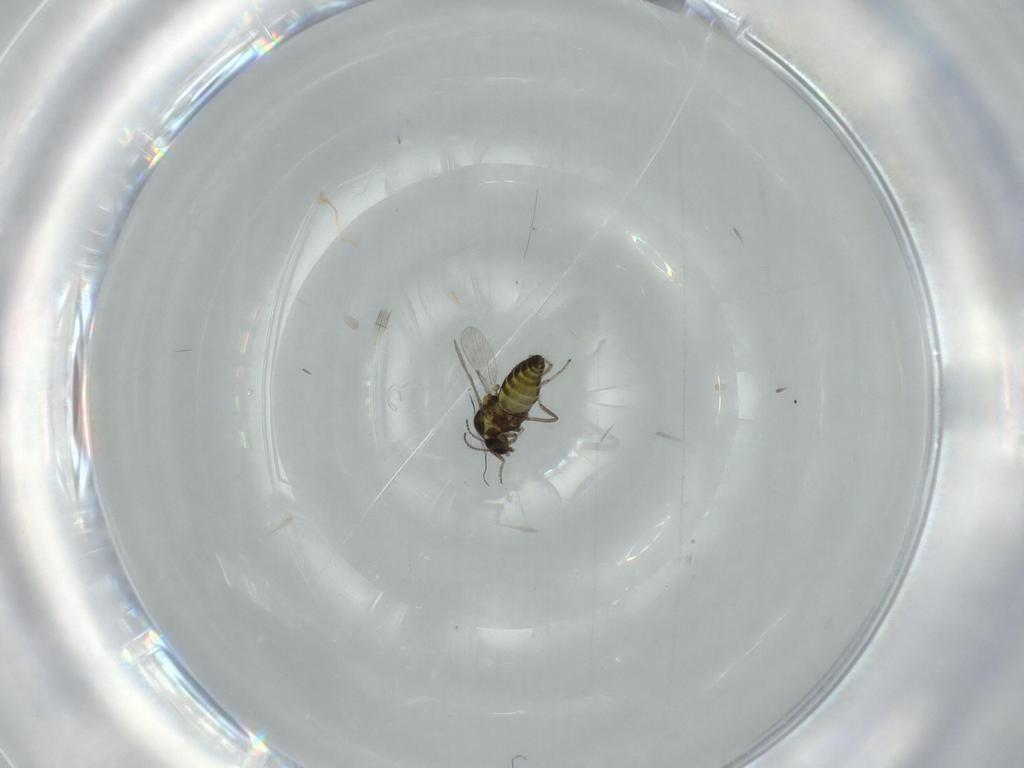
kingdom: Animalia
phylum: Arthropoda
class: Insecta
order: Diptera
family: Ceratopogonidae
